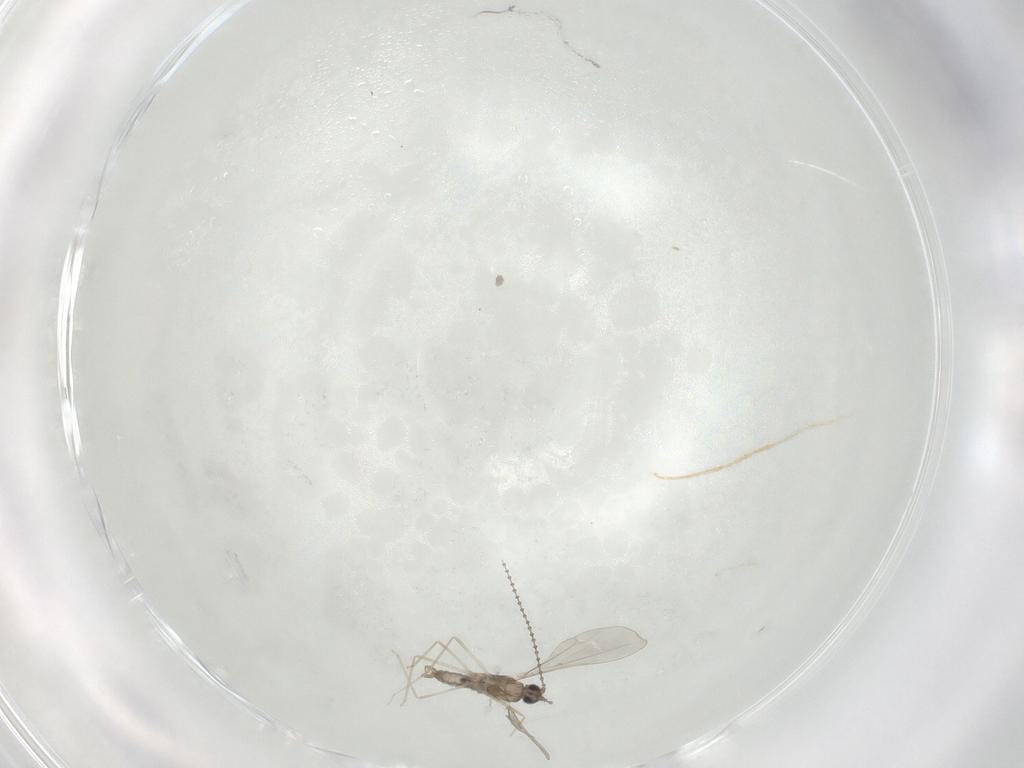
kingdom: Animalia
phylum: Arthropoda
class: Insecta
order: Diptera
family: Cecidomyiidae
